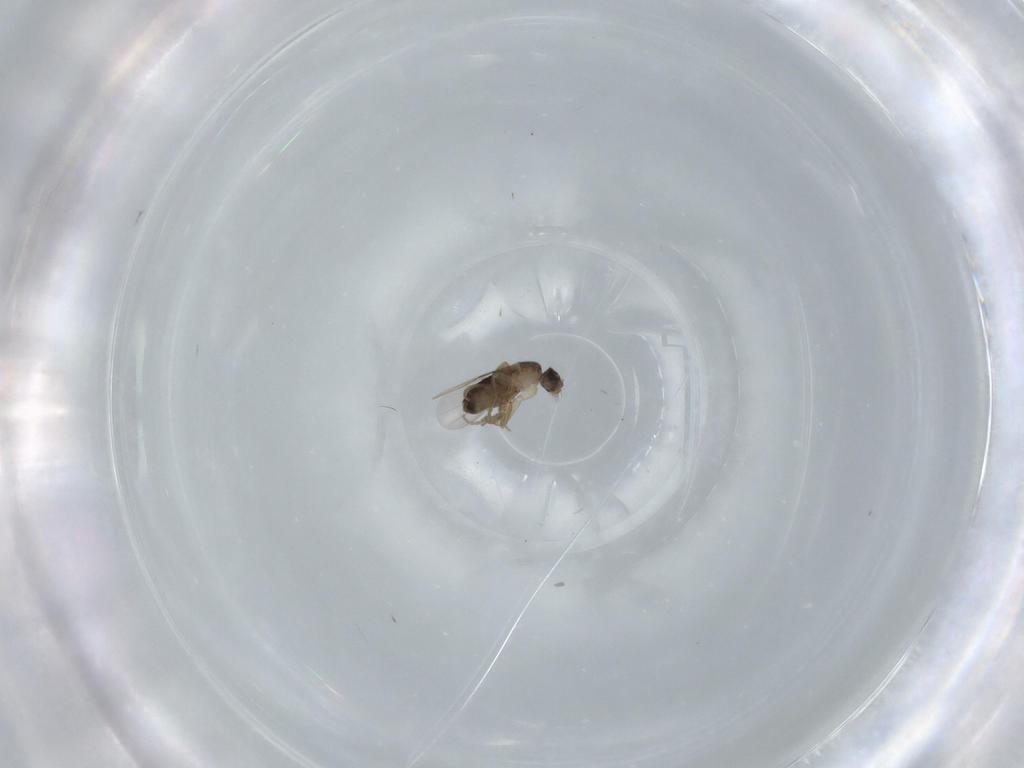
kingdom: Animalia
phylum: Arthropoda
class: Insecta
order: Diptera
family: Phoridae
